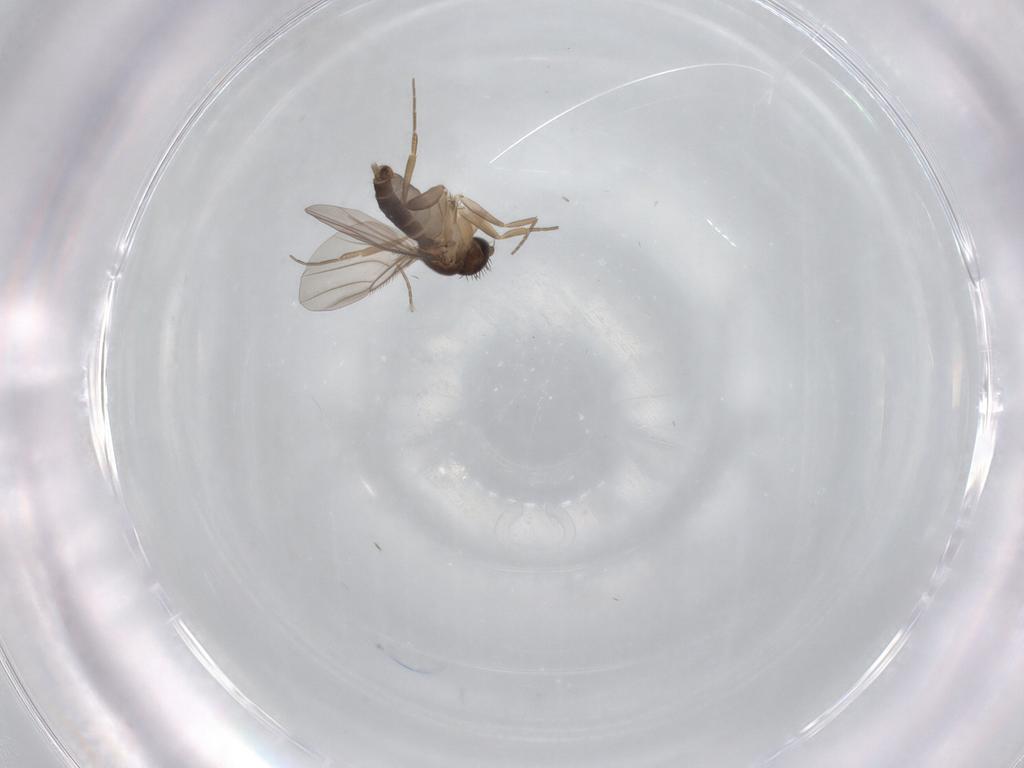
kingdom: Animalia
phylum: Arthropoda
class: Insecta
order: Diptera
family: Cecidomyiidae
